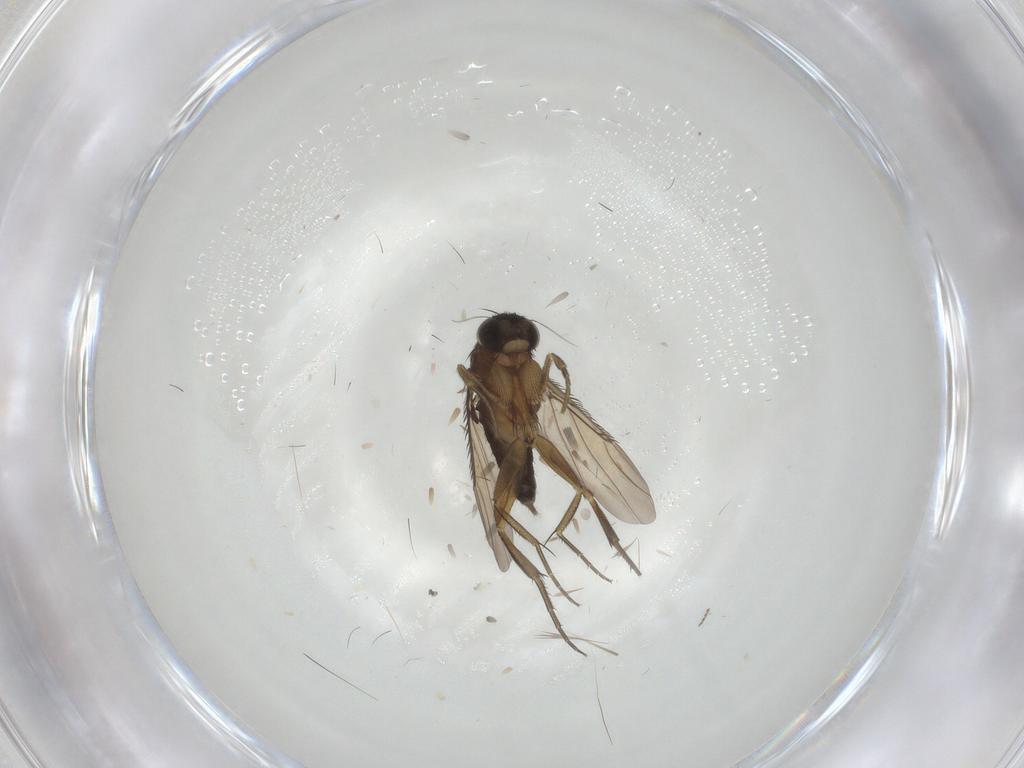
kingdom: Animalia
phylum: Arthropoda
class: Insecta
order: Diptera
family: Phoridae
